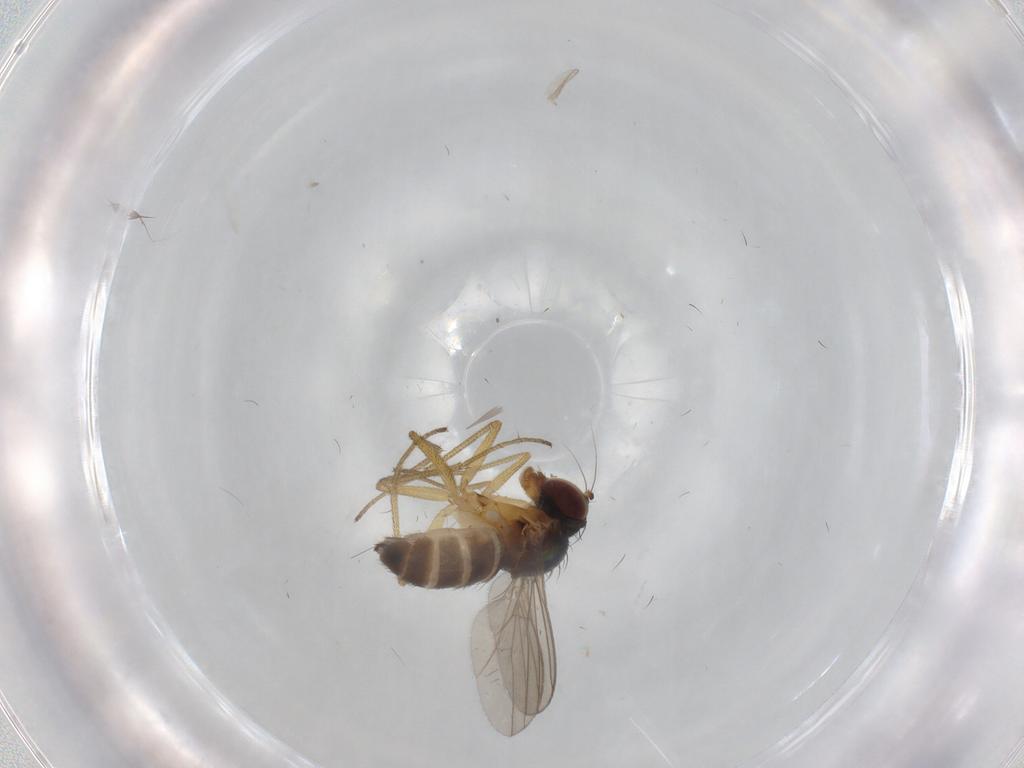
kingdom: Animalia
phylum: Arthropoda
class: Insecta
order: Diptera
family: Dolichopodidae
